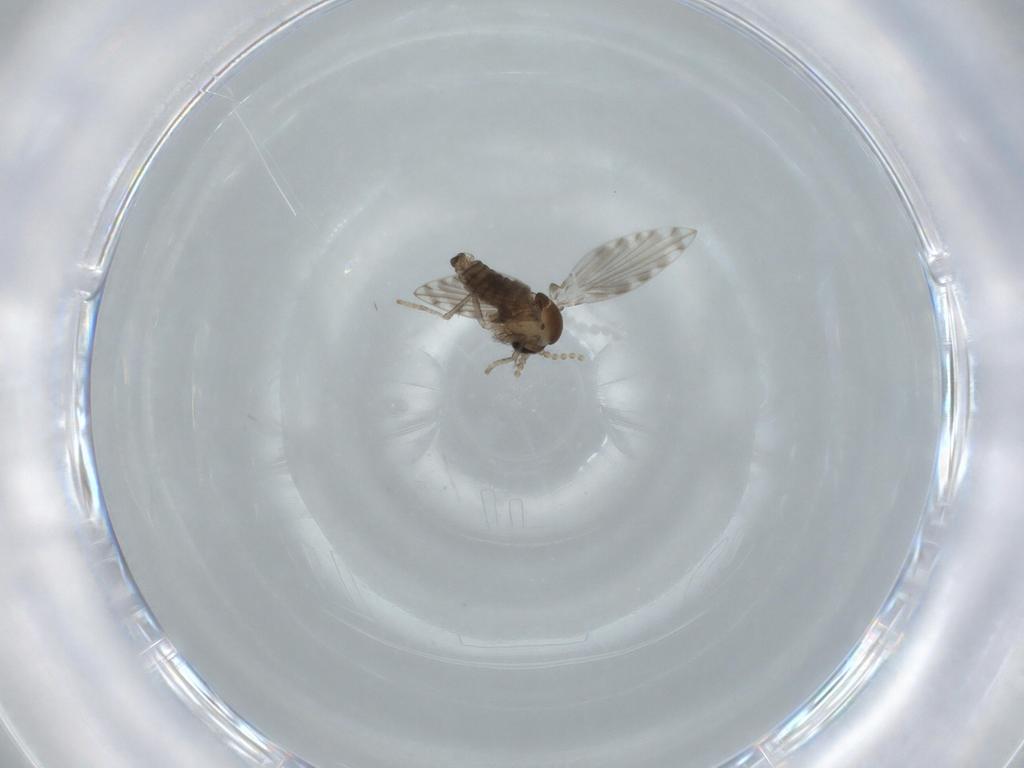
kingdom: Animalia
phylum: Arthropoda
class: Insecta
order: Diptera
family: Psychodidae
